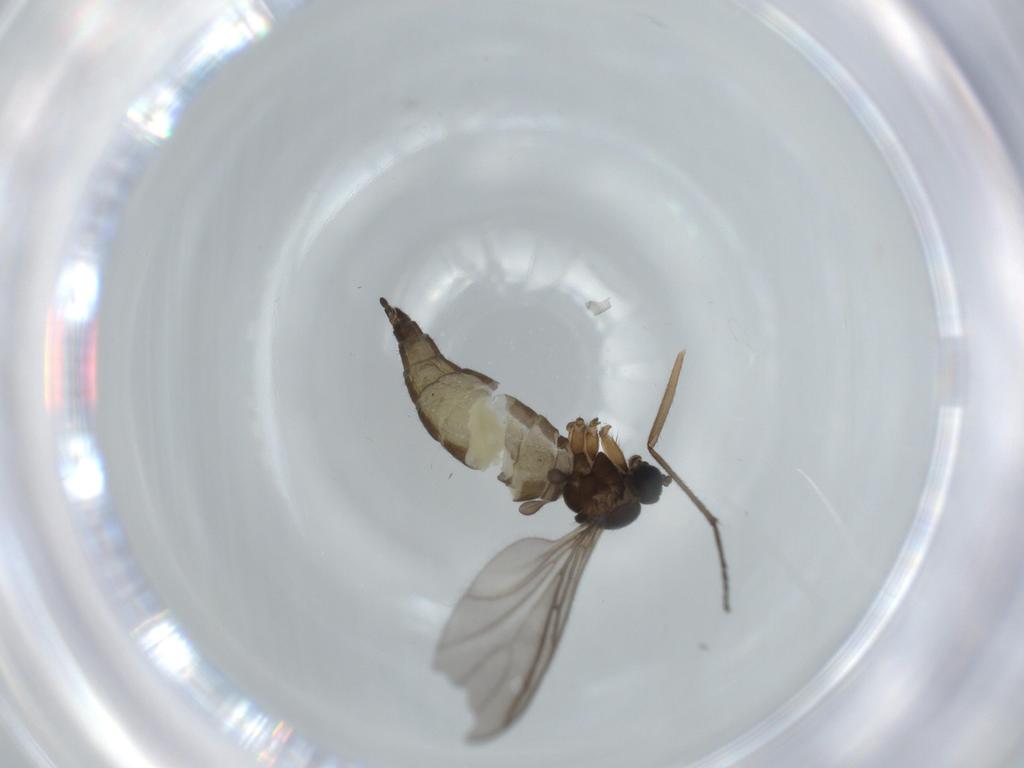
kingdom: Animalia
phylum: Arthropoda
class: Insecta
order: Diptera
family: Sciaridae
